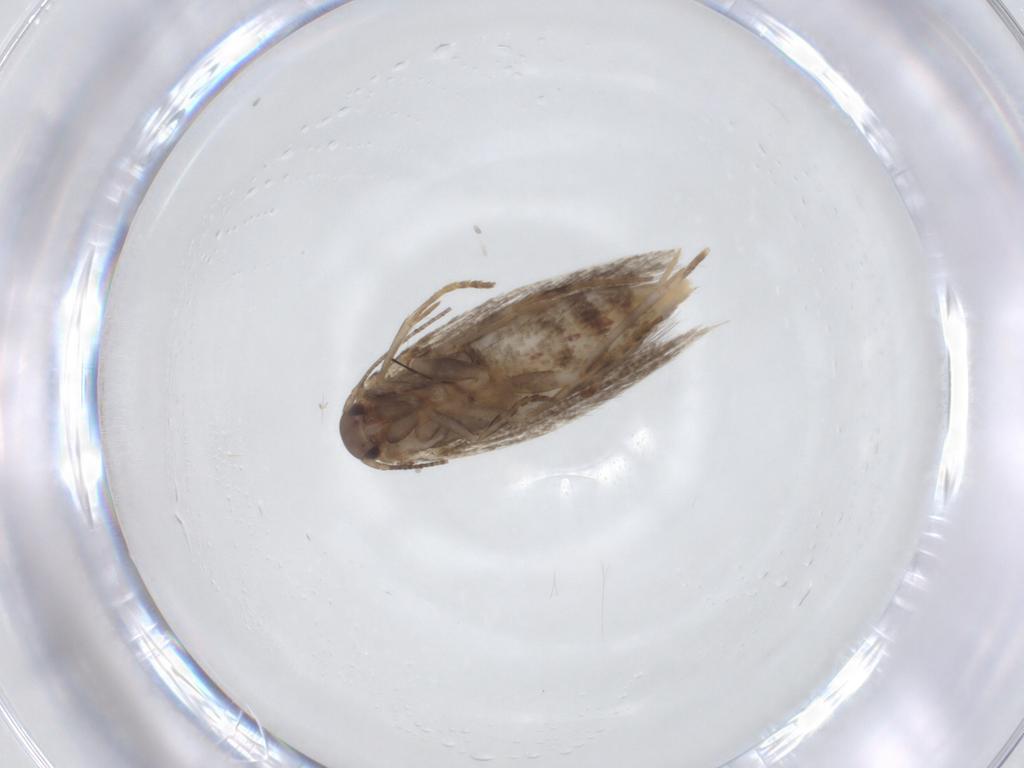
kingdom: Animalia
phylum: Arthropoda
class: Insecta
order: Lepidoptera
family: Elachistidae
